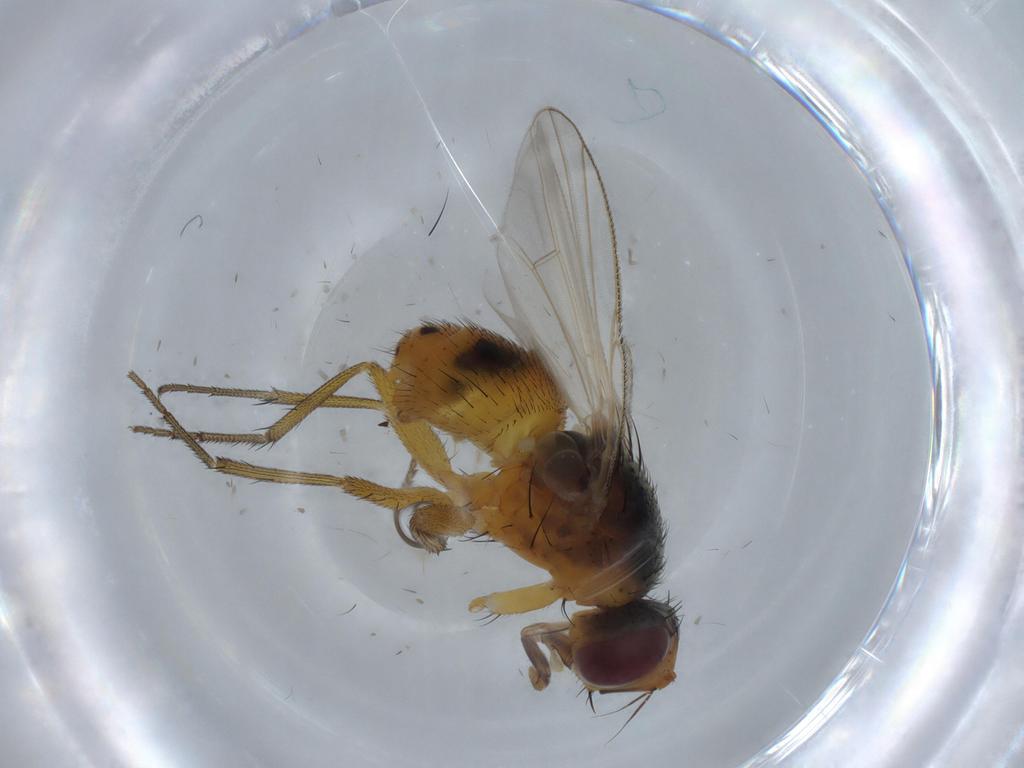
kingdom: Animalia
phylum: Arthropoda
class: Insecta
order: Diptera
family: Muscidae
